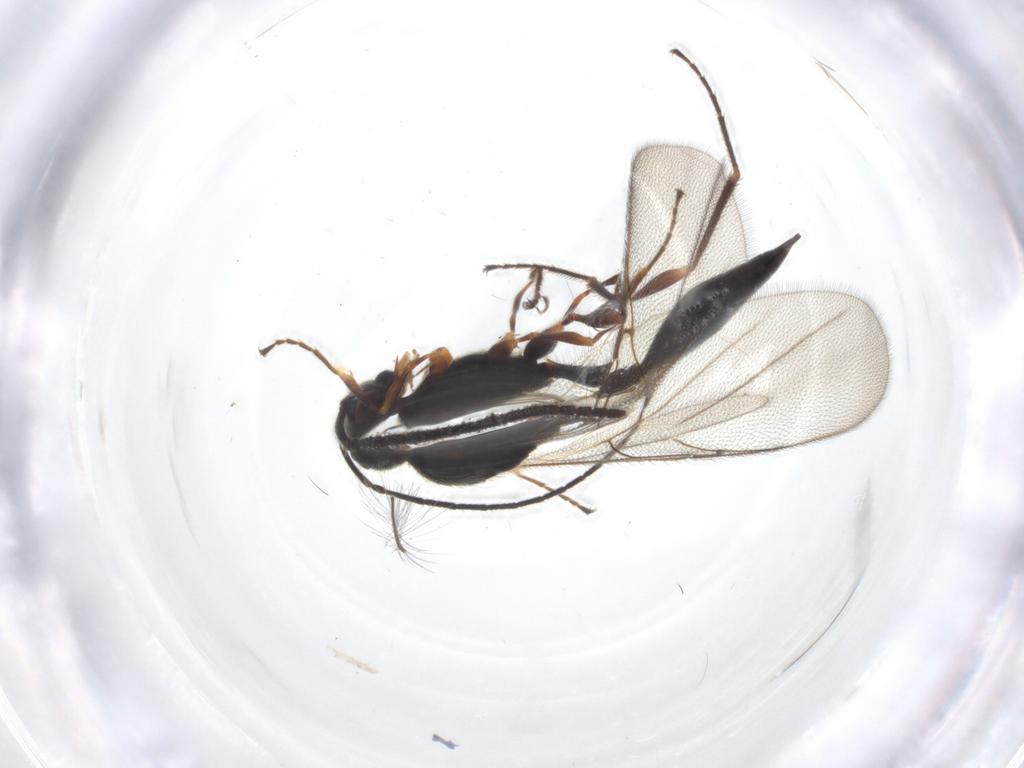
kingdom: Animalia
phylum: Arthropoda
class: Insecta
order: Hymenoptera
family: Diapriidae
